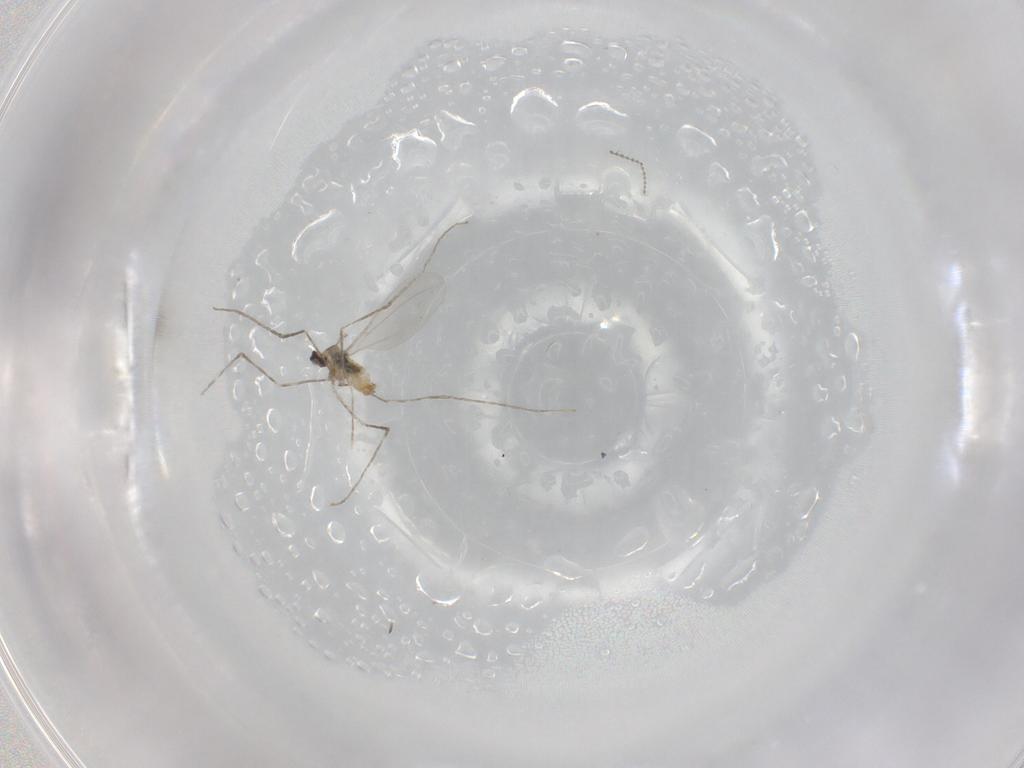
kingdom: Animalia
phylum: Arthropoda
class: Insecta
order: Diptera
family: Cecidomyiidae
